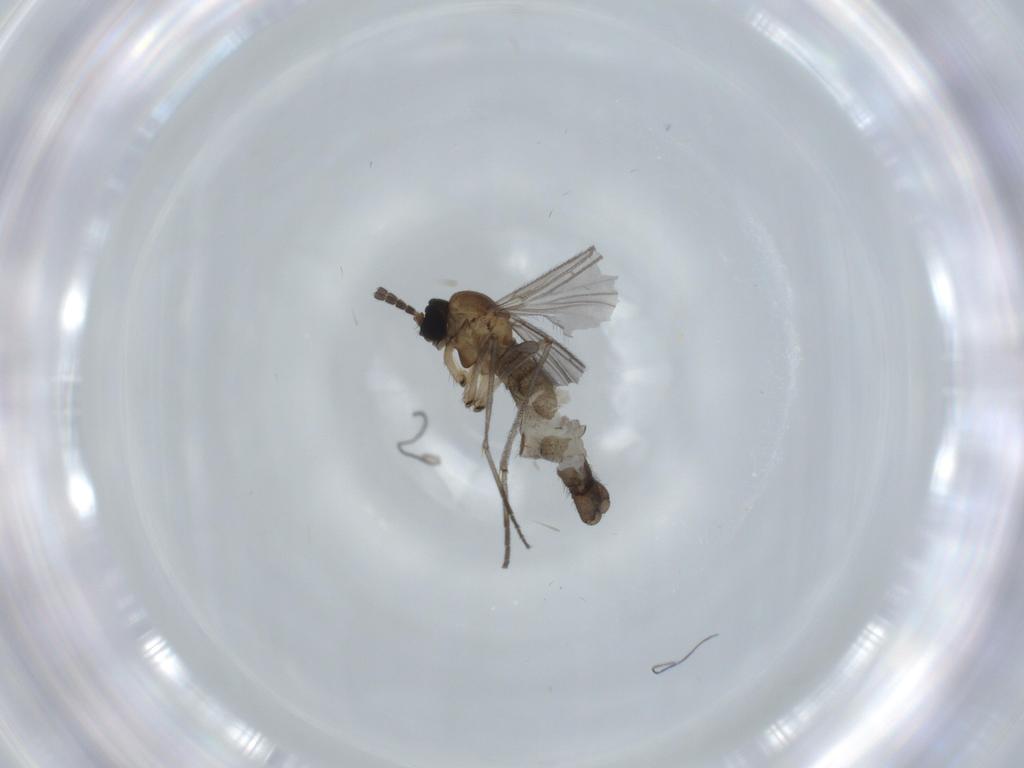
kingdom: Animalia
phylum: Arthropoda
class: Insecta
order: Diptera
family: Sciaridae
